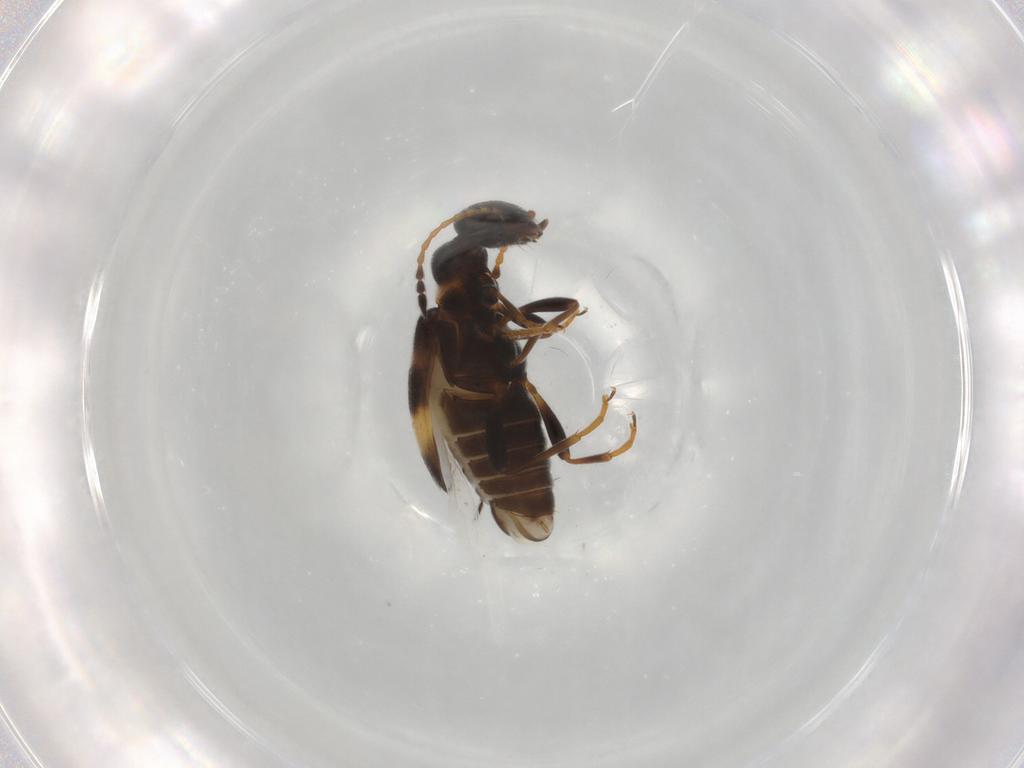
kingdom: Animalia
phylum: Arthropoda
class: Insecta
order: Coleoptera
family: Anthicidae
